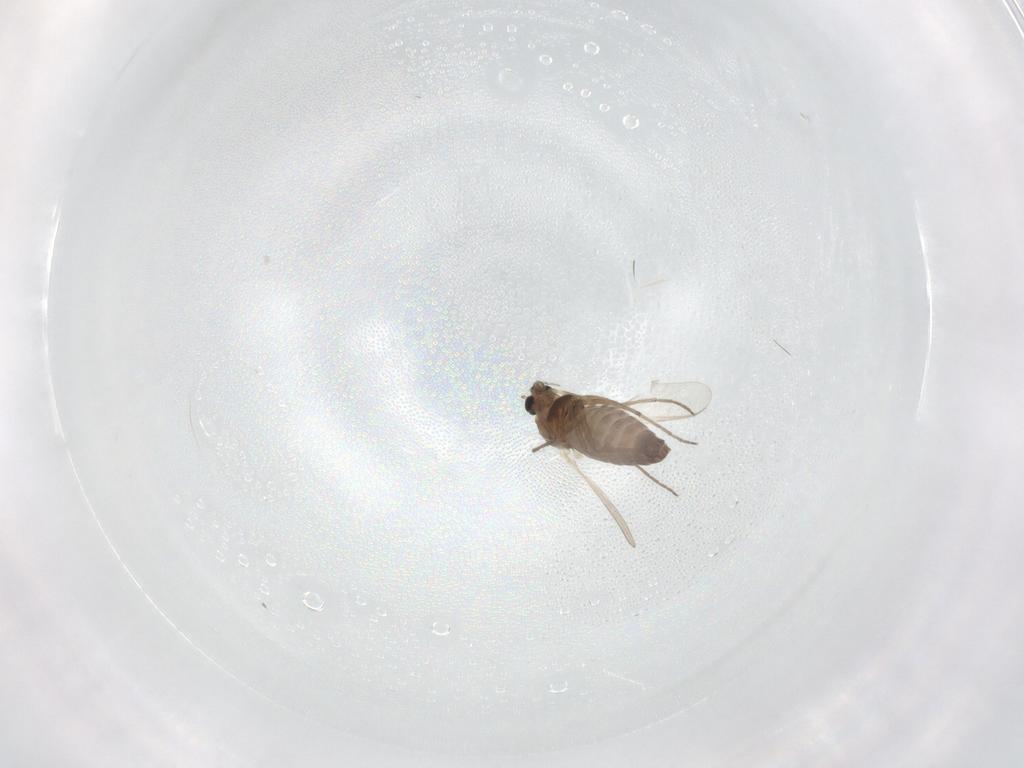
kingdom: Animalia
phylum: Arthropoda
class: Insecta
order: Diptera
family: Chironomidae
